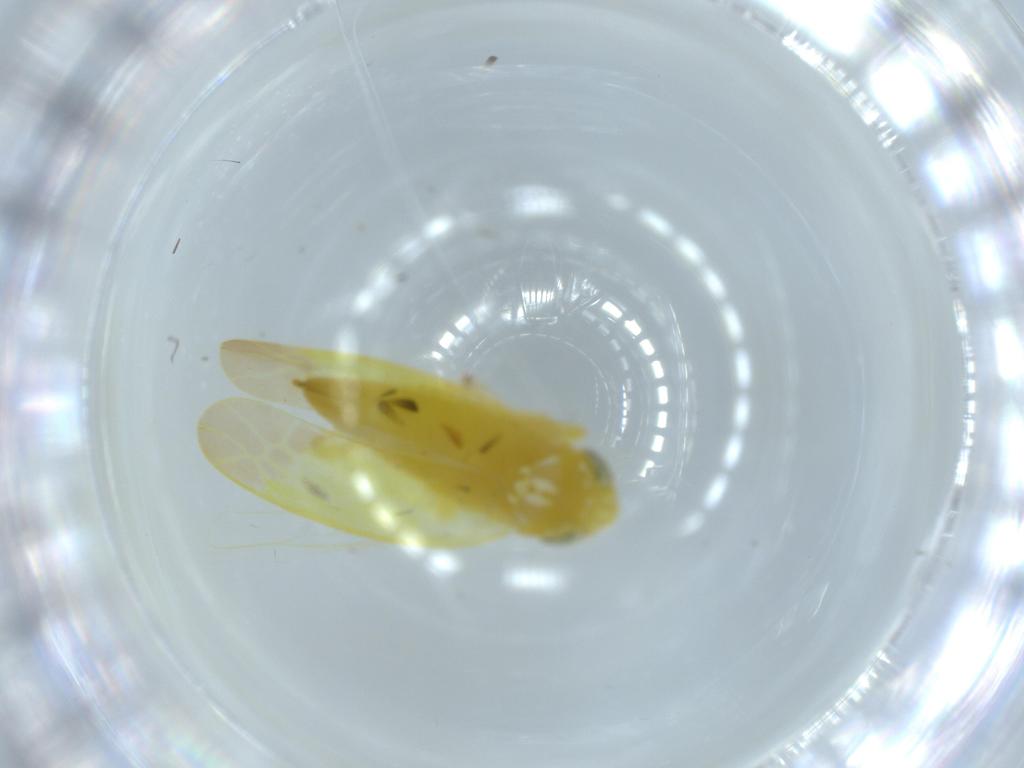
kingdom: Animalia
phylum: Arthropoda
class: Insecta
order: Hemiptera
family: Cicadellidae
